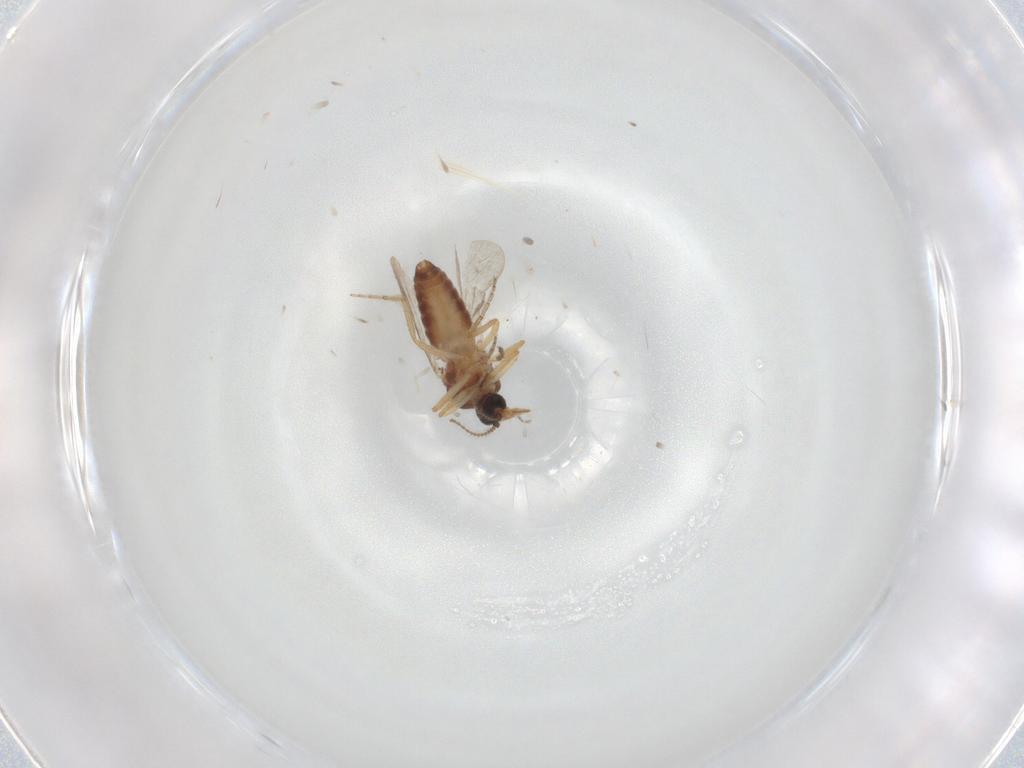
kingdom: Animalia
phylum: Arthropoda
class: Insecta
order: Diptera
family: Ceratopogonidae
